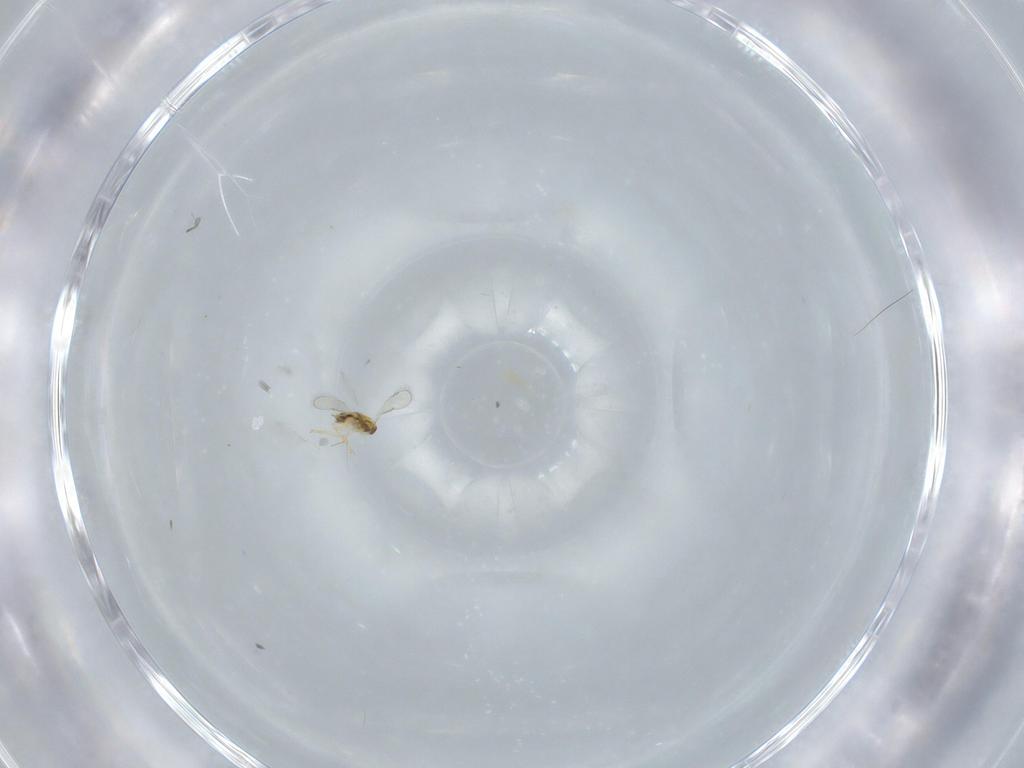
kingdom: Animalia
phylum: Arthropoda
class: Insecta
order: Hymenoptera
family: Aphelinidae
